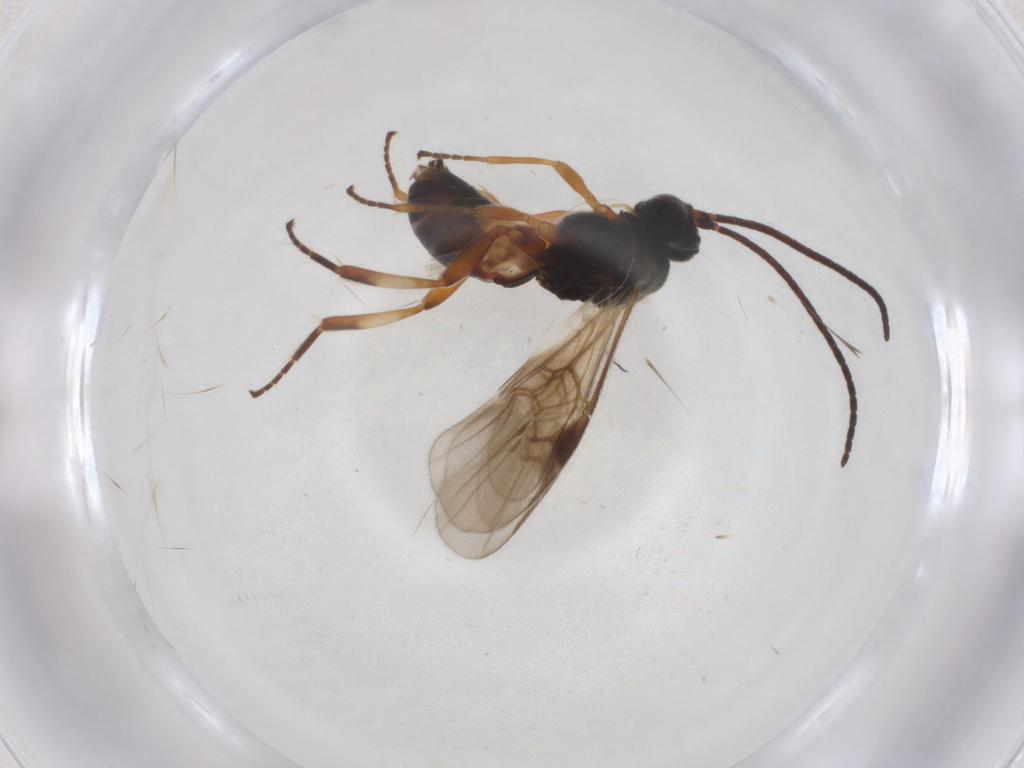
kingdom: Animalia
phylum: Arthropoda
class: Insecta
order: Hymenoptera
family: Braconidae
